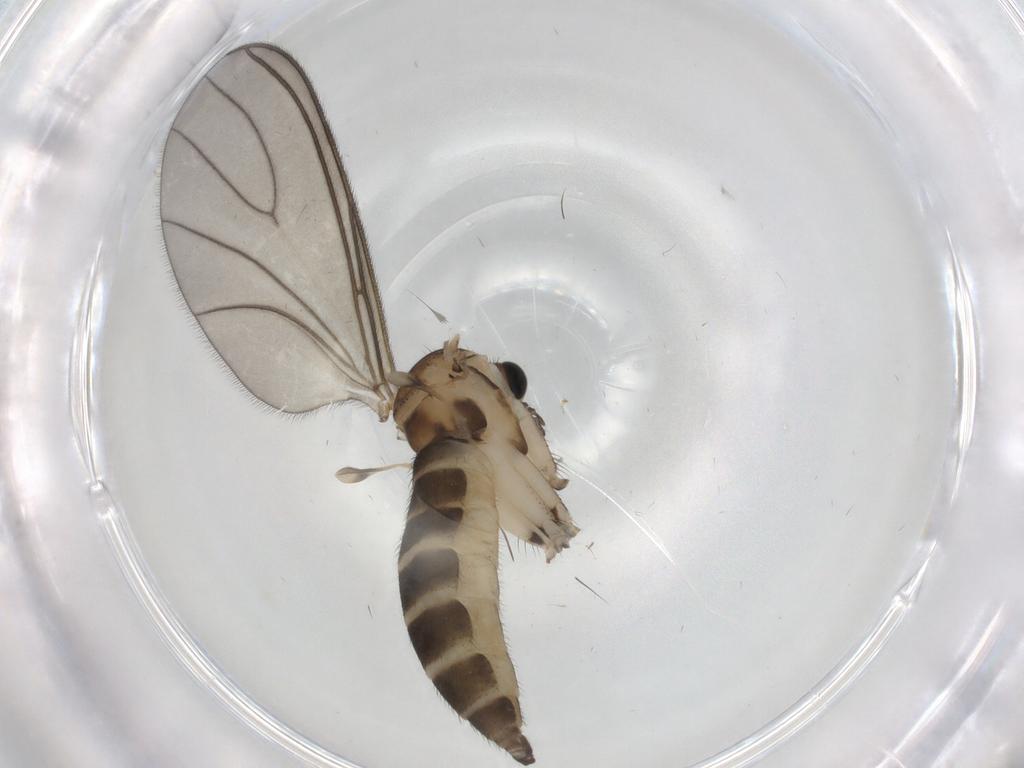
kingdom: Animalia
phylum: Arthropoda
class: Insecta
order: Diptera
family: Sciaridae
